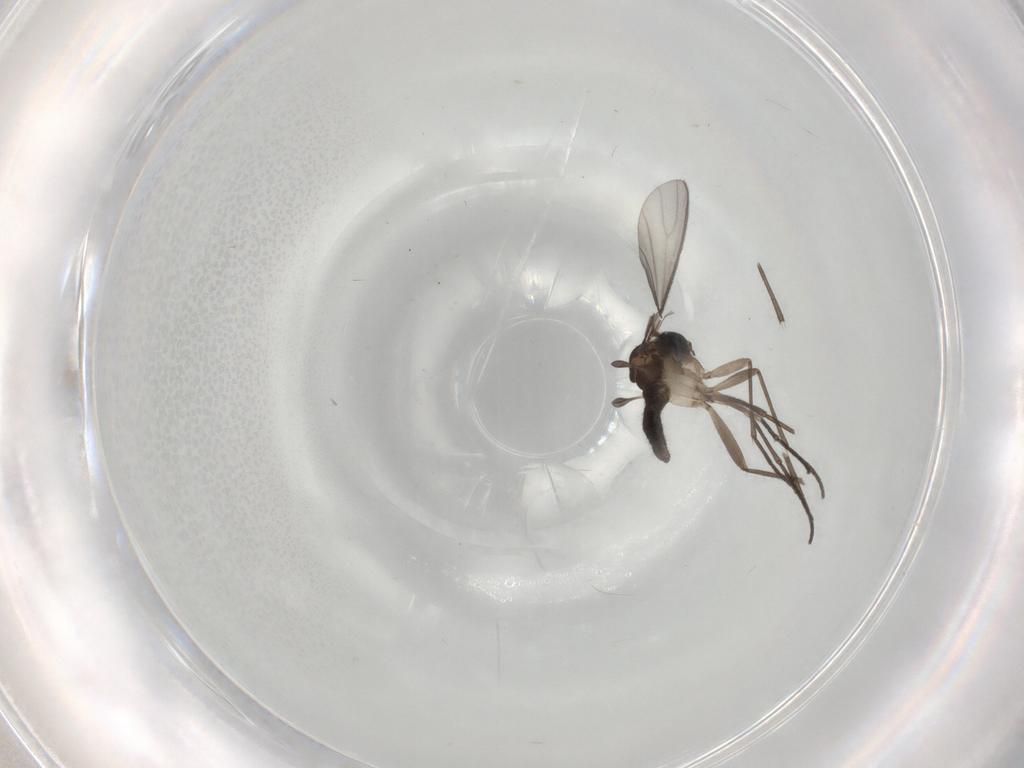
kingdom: Animalia
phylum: Arthropoda
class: Insecta
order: Diptera
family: Sciaridae
